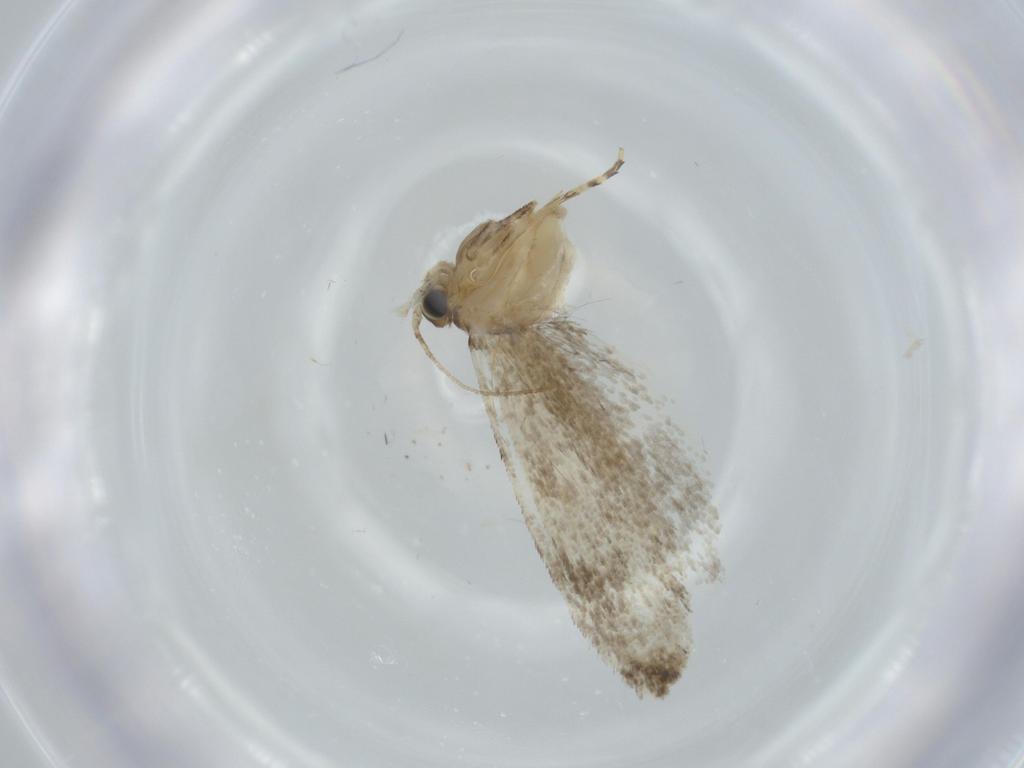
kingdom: Animalia
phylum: Arthropoda
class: Insecta
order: Lepidoptera
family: Tineidae
